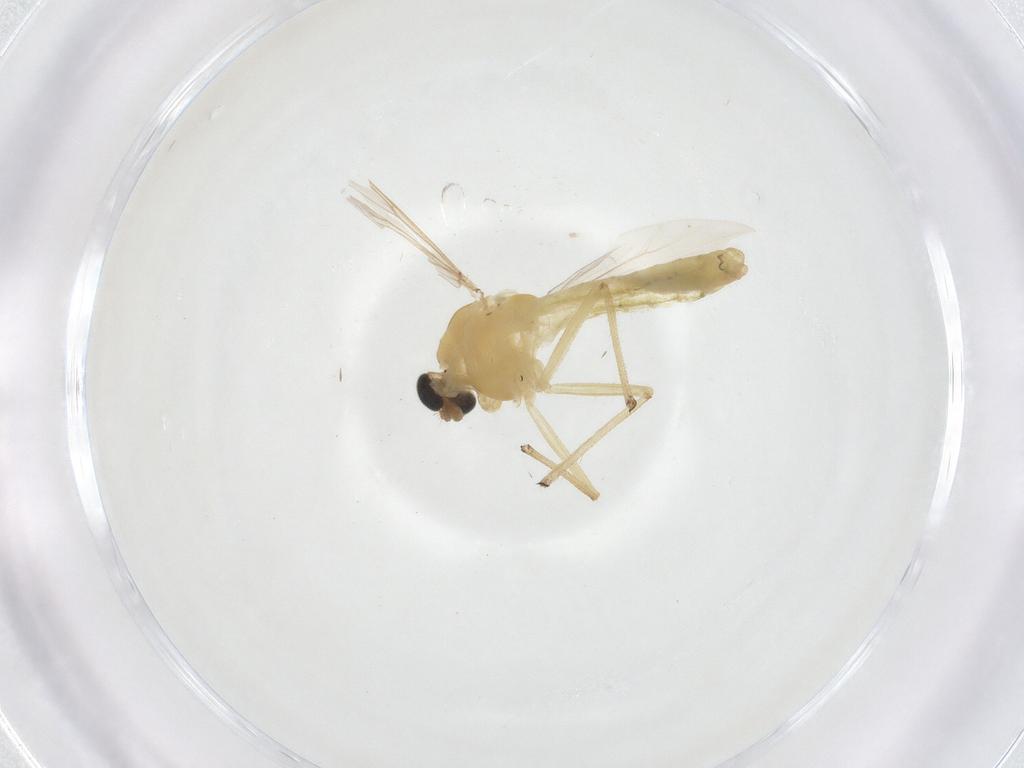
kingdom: Animalia
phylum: Arthropoda
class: Insecta
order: Diptera
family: Chironomidae
